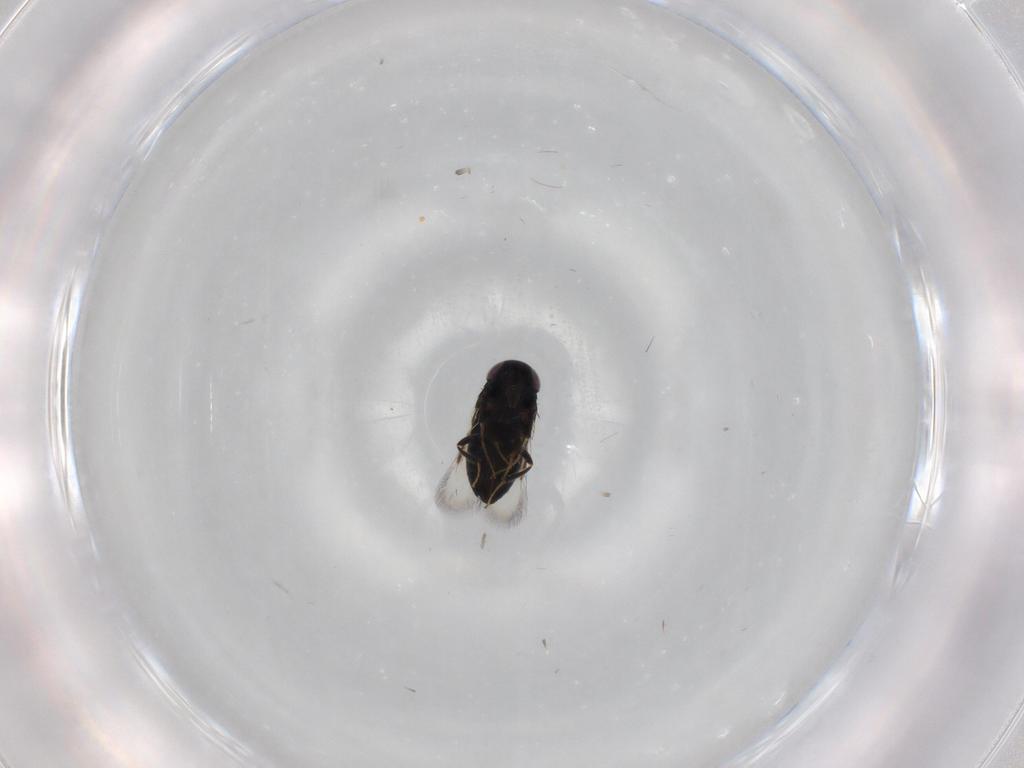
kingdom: Animalia
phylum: Arthropoda
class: Insecta
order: Hymenoptera
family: Signiphoridae
